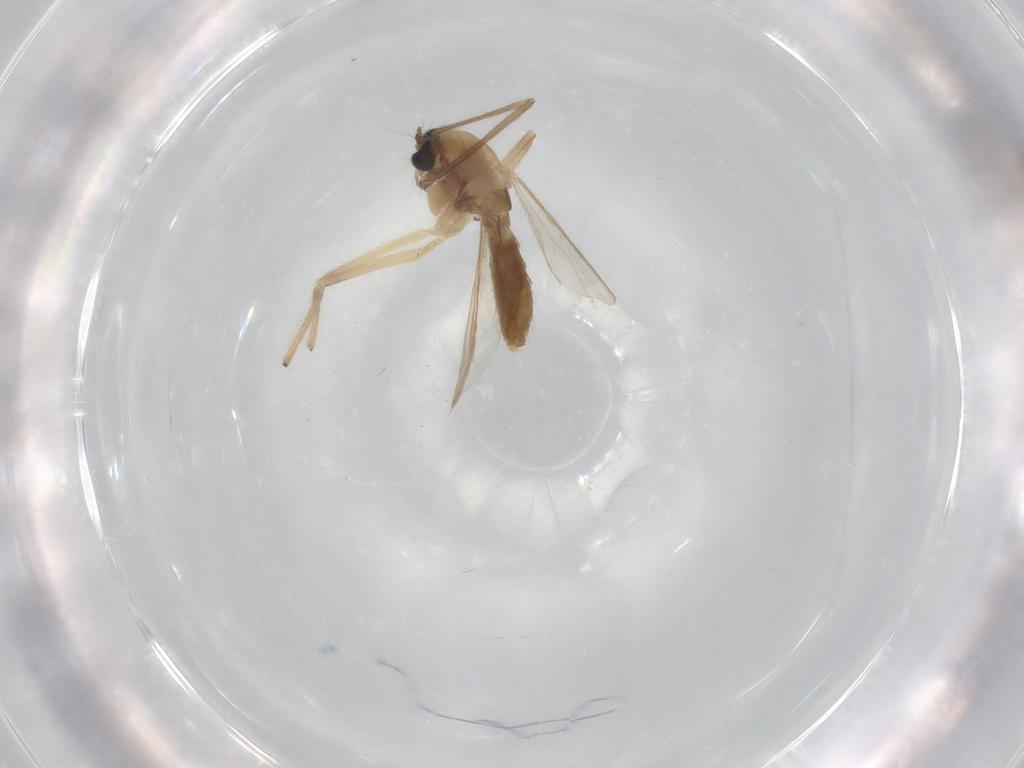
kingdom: Animalia
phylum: Arthropoda
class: Insecta
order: Diptera
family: Chironomidae
